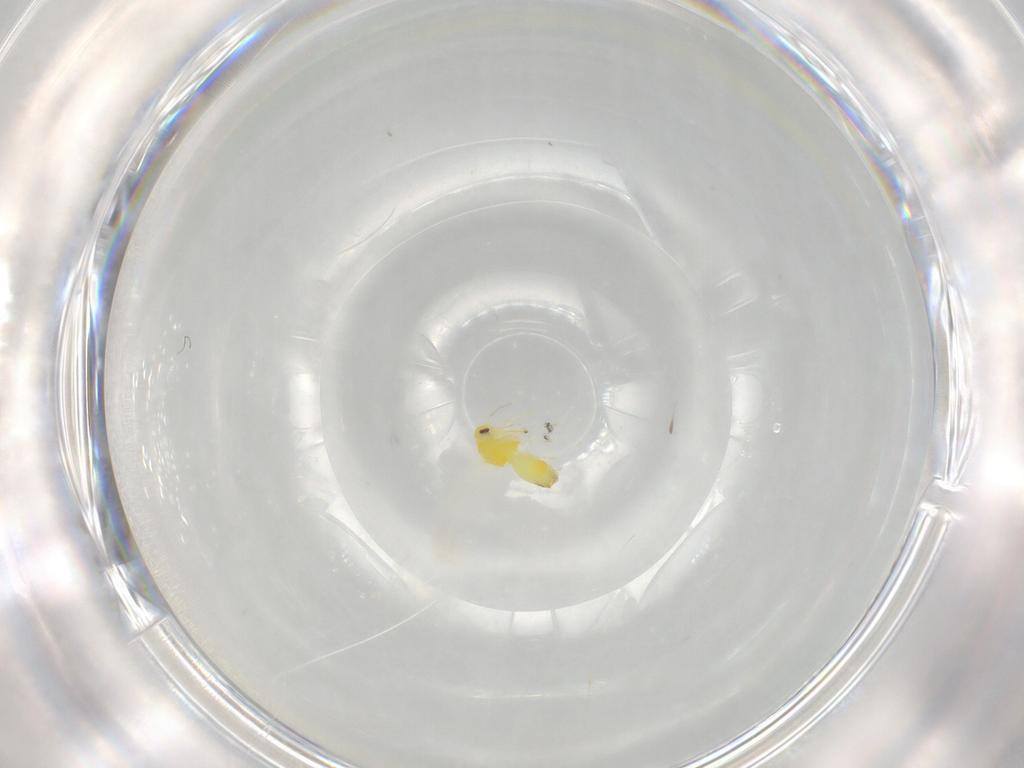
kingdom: Animalia
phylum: Arthropoda
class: Insecta
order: Hemiptera
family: Aleyrodidae
